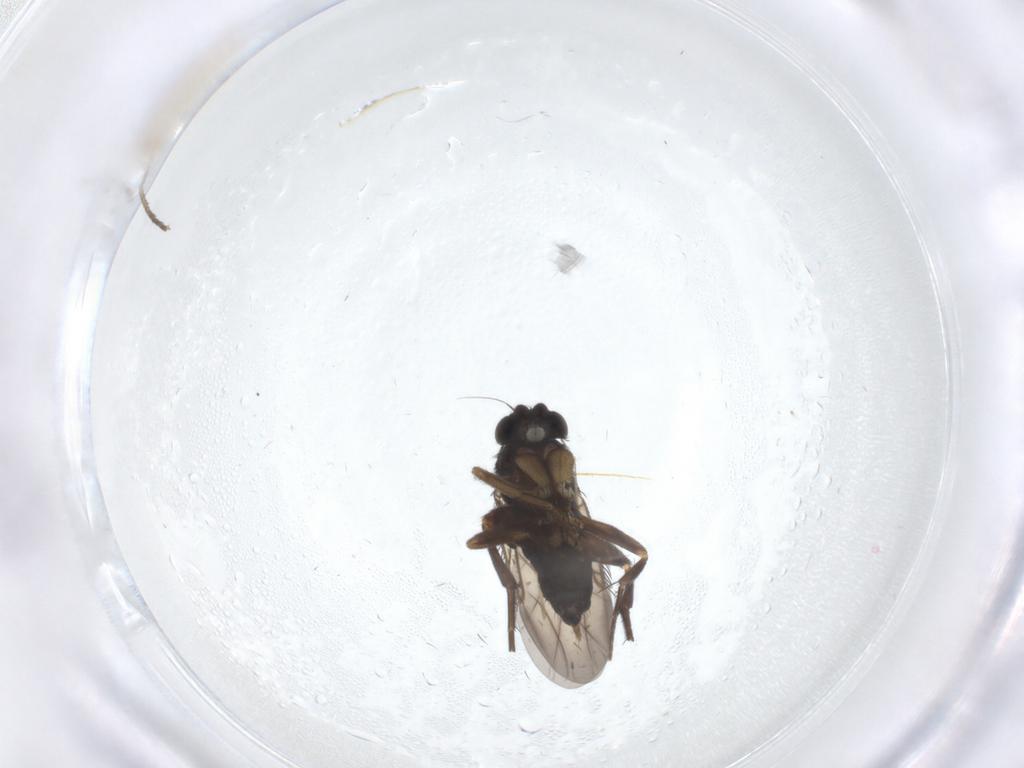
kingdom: Animalia
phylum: Arthropoda
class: Insecta
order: Diptera
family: Phoridae
